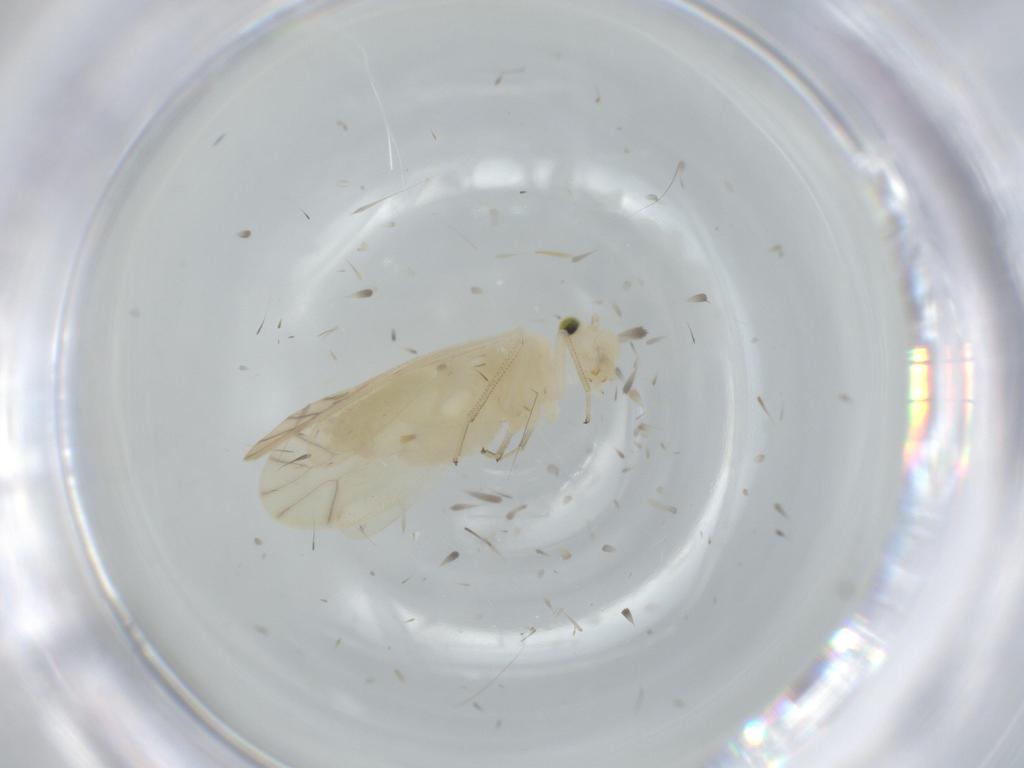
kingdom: Animalia
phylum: Arthropoda
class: Insecta
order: Psocodea
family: Caeciliusidae
